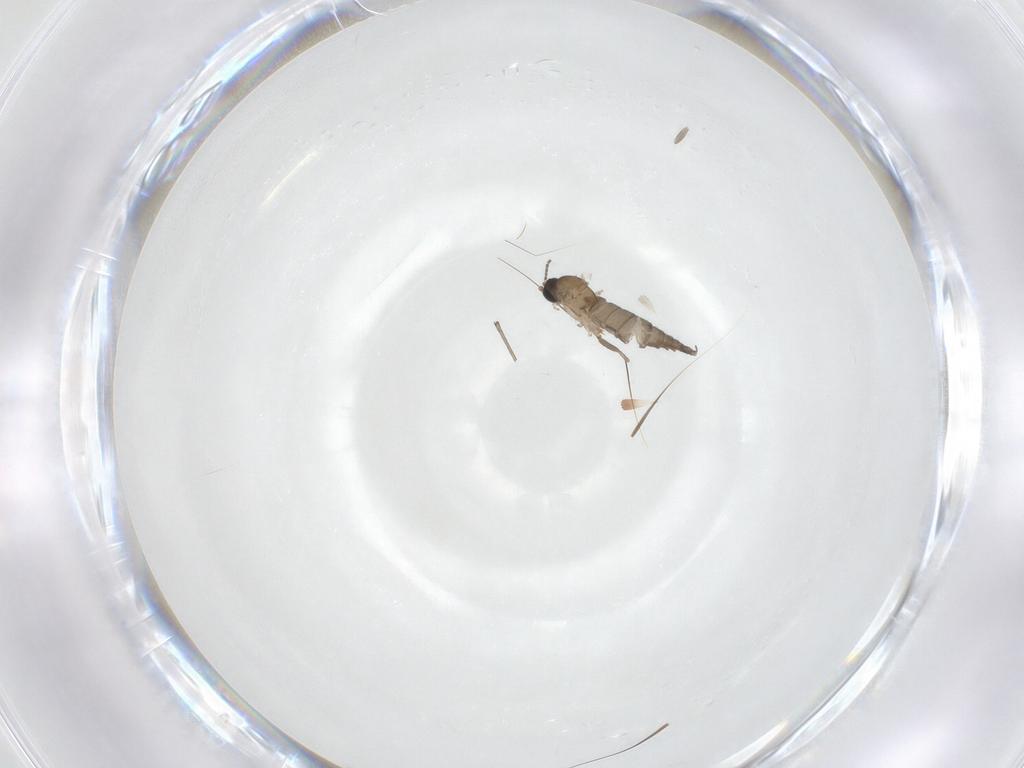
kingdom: Animalia
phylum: Arthropoda
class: Insecta
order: Diptera
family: Sciaridae
